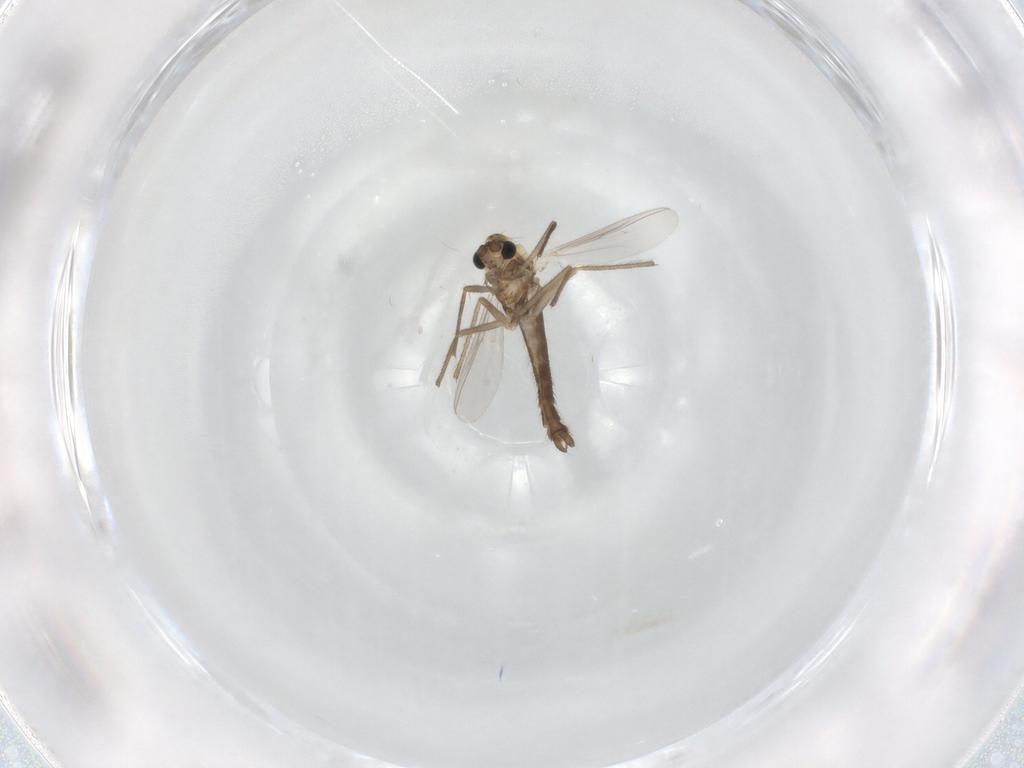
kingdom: Animalia
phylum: Arthropoda
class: Insecta
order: Diptera
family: Chironomidae
